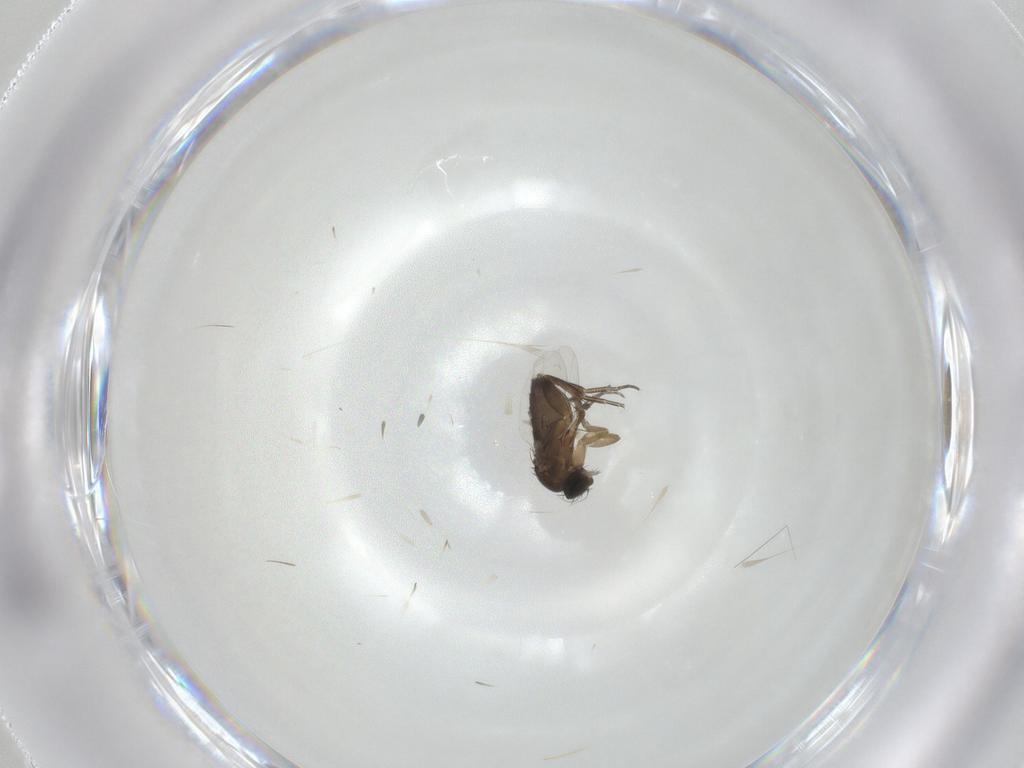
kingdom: Animalia
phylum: Arthropoda
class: Insecta
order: Diptera
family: Phoridae
